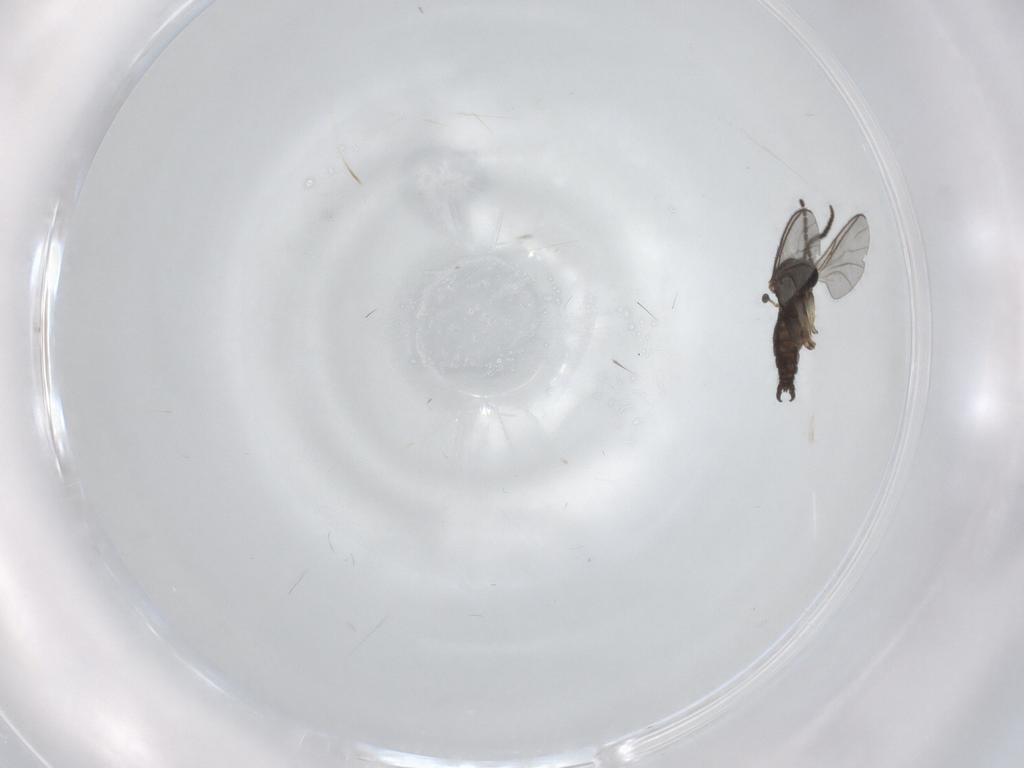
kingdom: Animalia
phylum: Arthropoda
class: Insecta
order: Diptera
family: Sciaridae
